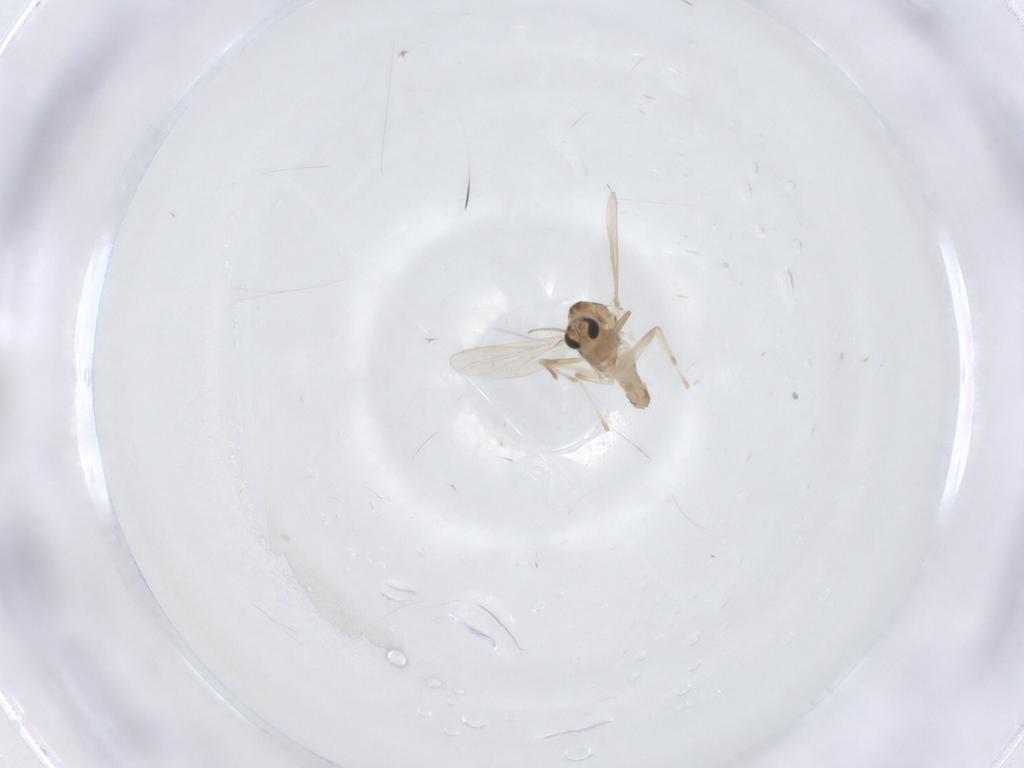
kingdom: Animalia
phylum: Arthropoda
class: Insecta
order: Diptera
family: Chironomidae
